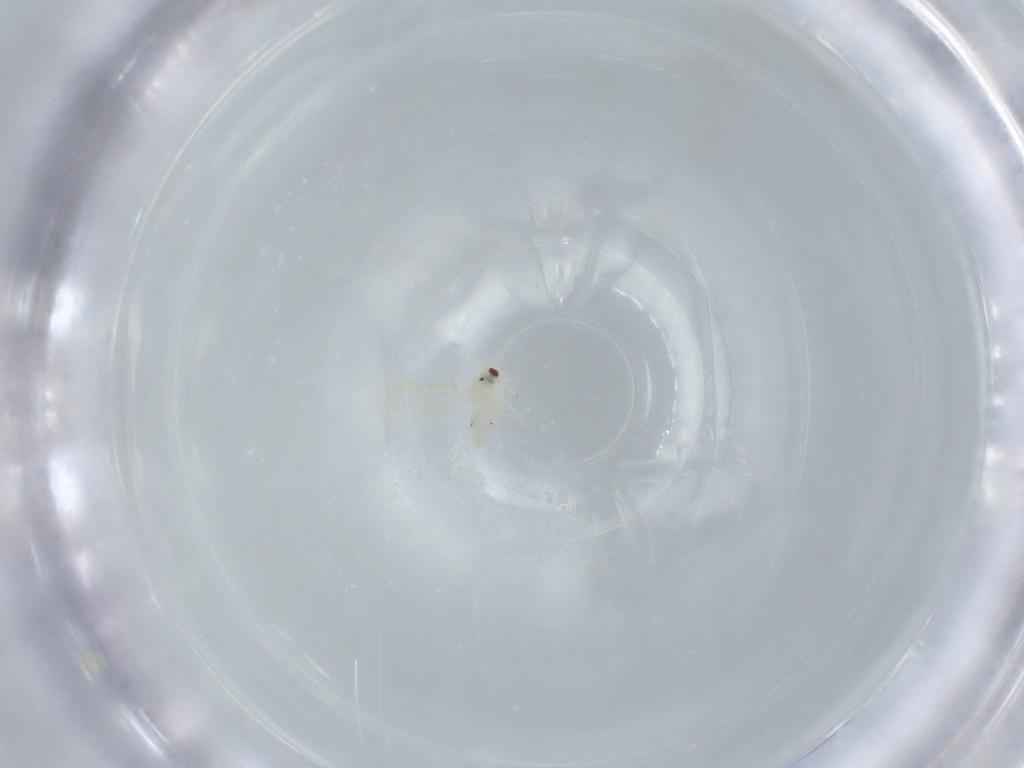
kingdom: Animalia
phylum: Arthropoda
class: Insecta
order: Hemiptera
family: Aleyrodidae
